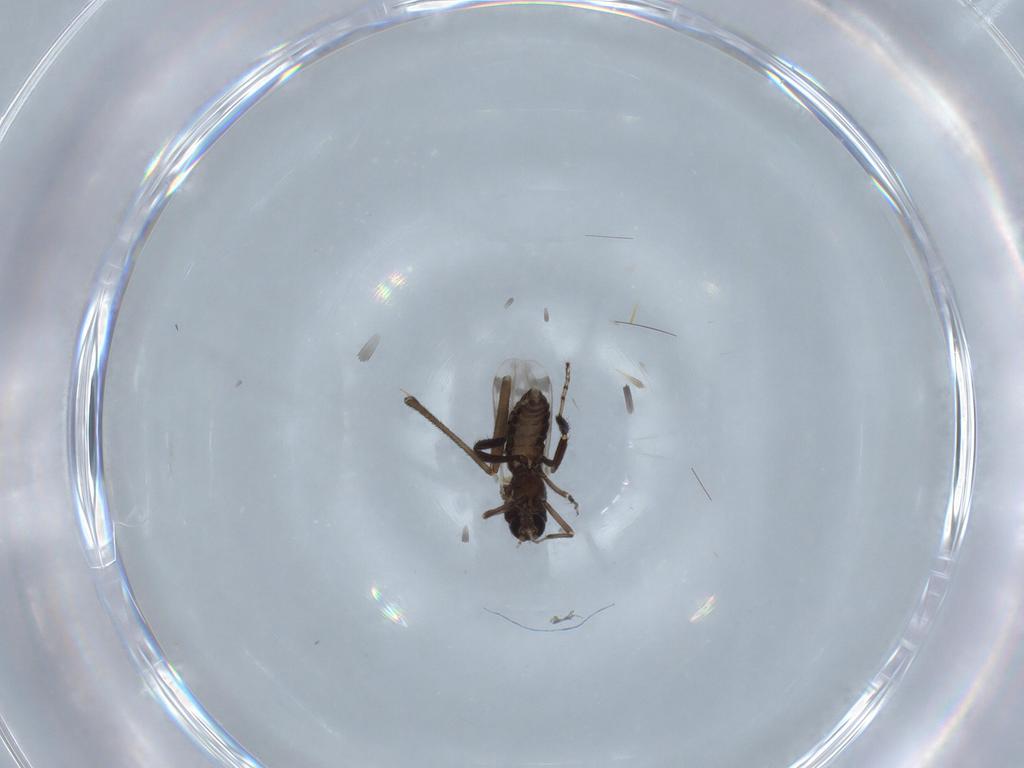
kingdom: Animalia
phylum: Arthropoda
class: Insecta
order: Diptera
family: Ceratopogonidae
